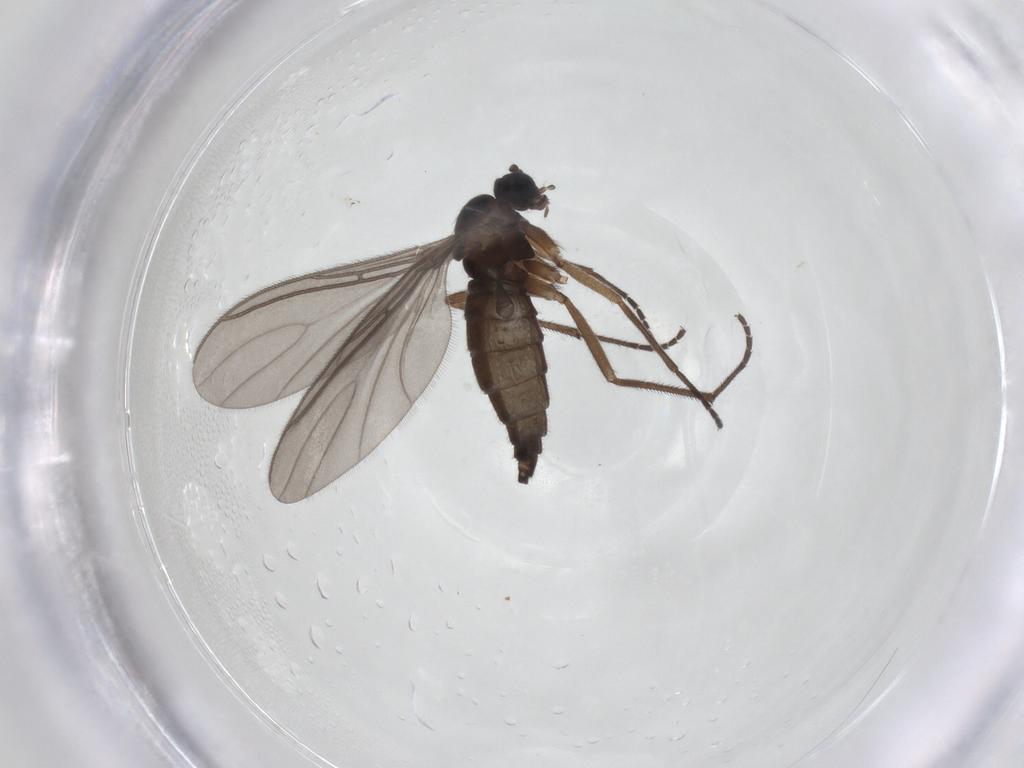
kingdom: Animalia
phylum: Arthropoda
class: Insecta
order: Diptera
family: Sciaridae
